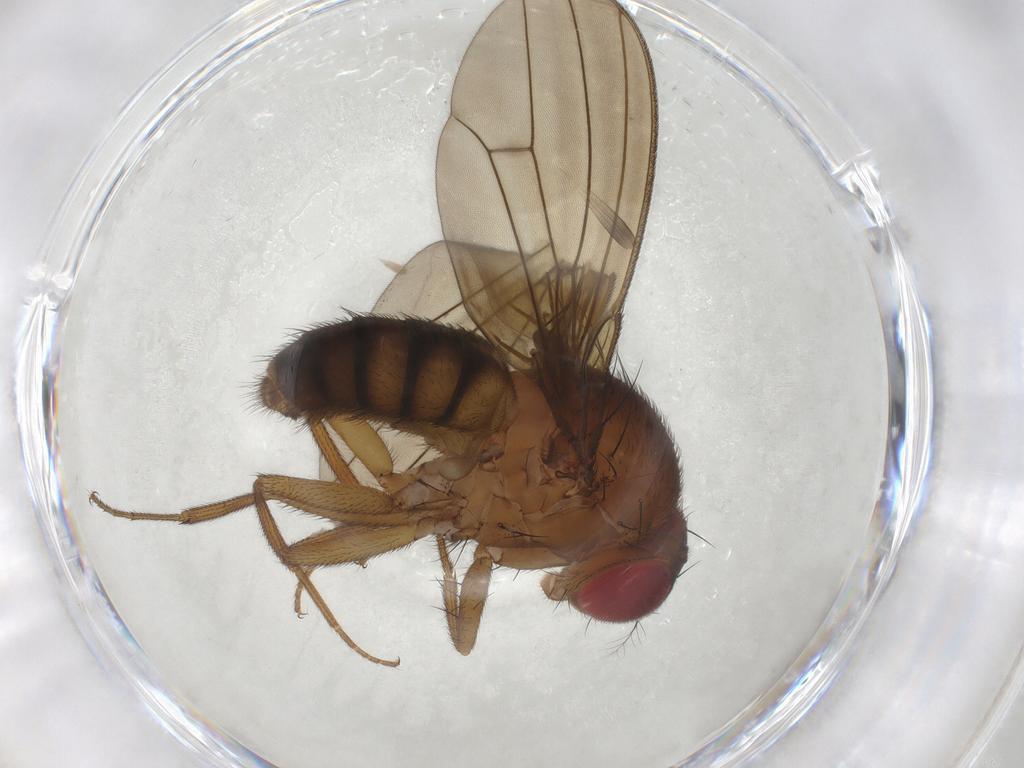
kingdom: Animalia
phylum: Arthropoda
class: Insecta
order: Diptera
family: Drosophilidae
